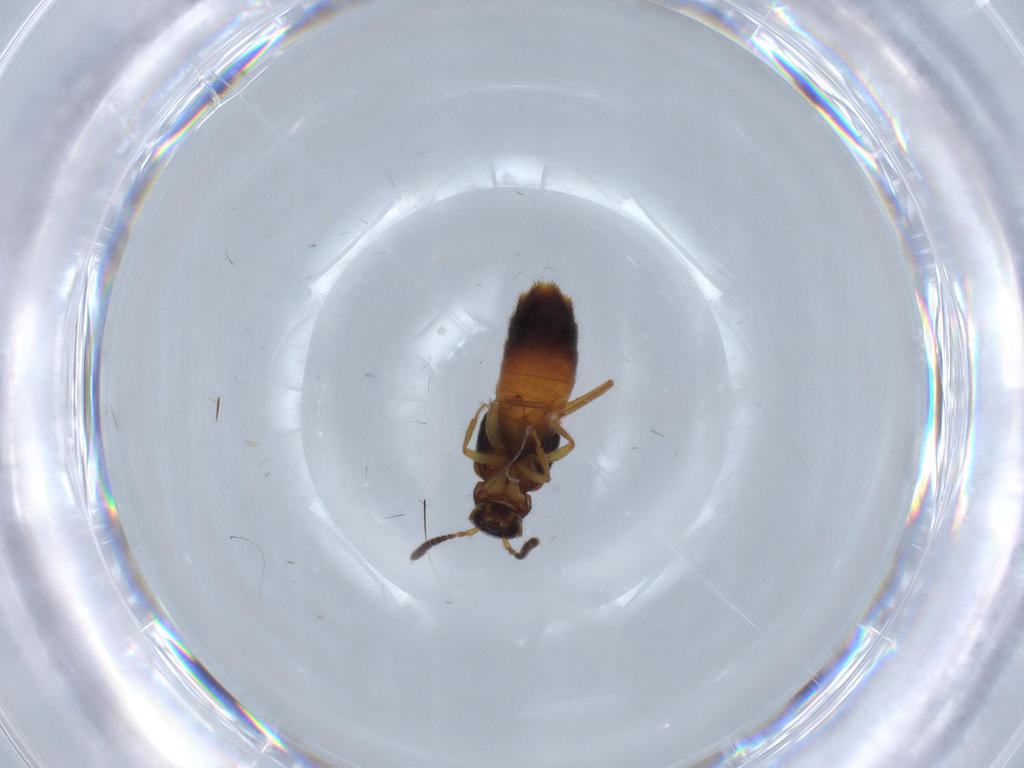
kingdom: Animalia
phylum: Arthropoda
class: Insecta
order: Coleoptera
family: Staphylinidae
